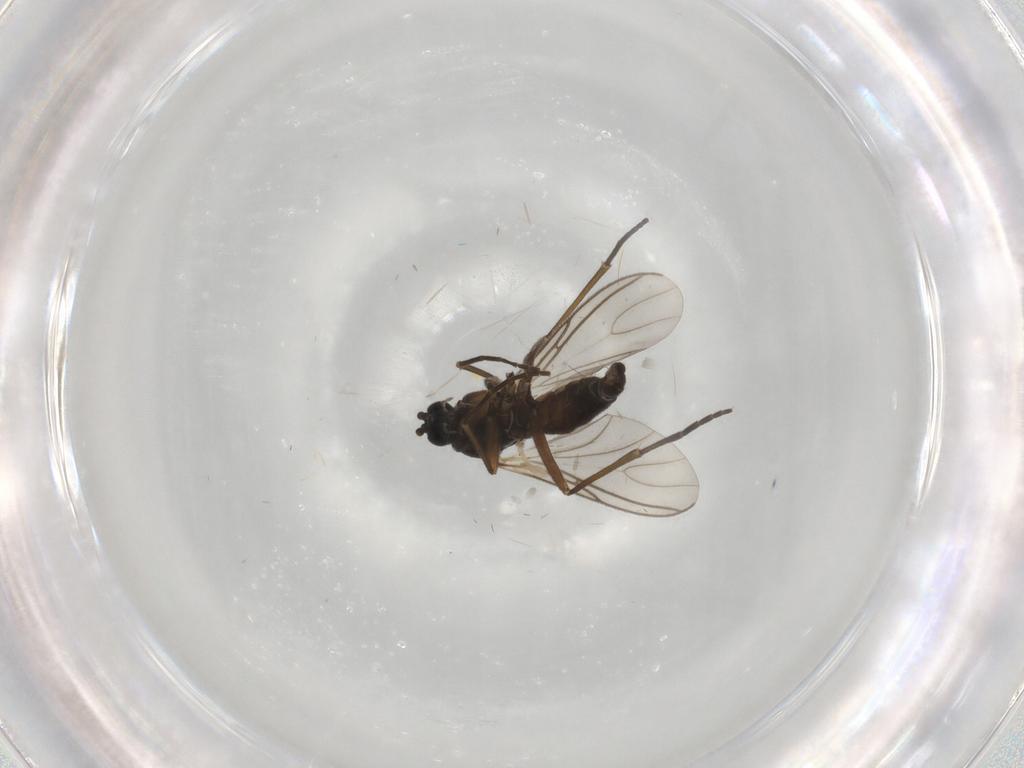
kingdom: Animalia
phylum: Arthropoda
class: Insecta
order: Diptera
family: Sciaridae
